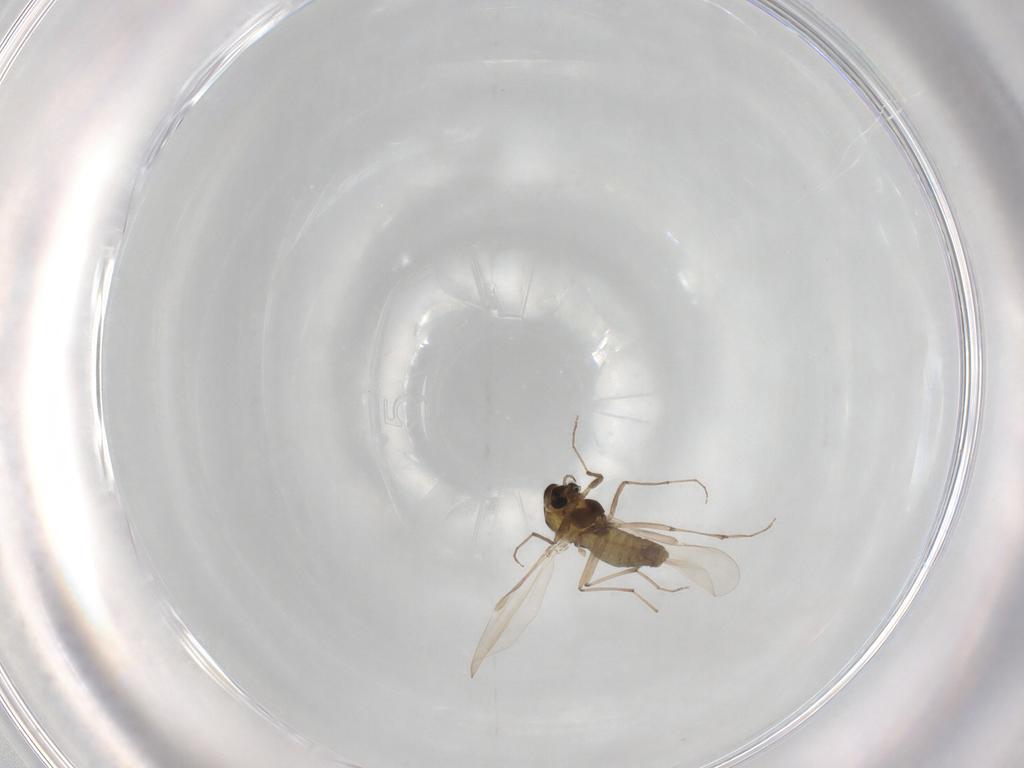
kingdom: Animalia
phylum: Arthropoda
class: Insecta
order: Diptera
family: Chironomidae
